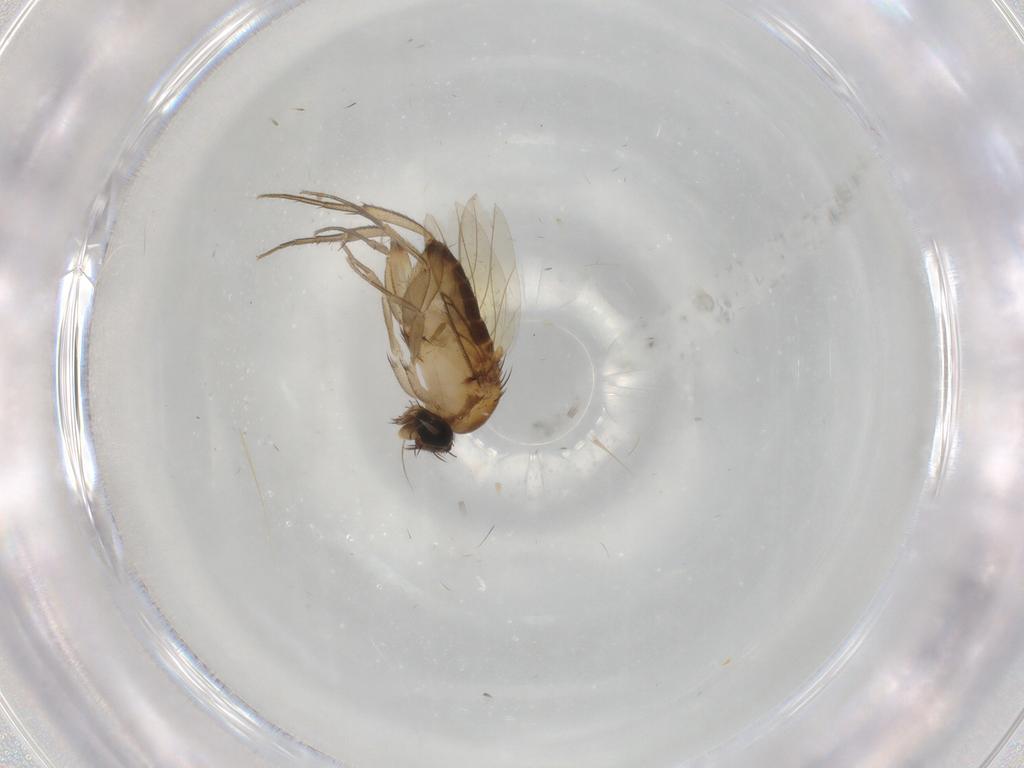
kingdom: Animalia
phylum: Arthropoda
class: Insecta
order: Diptera
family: Phoridae
